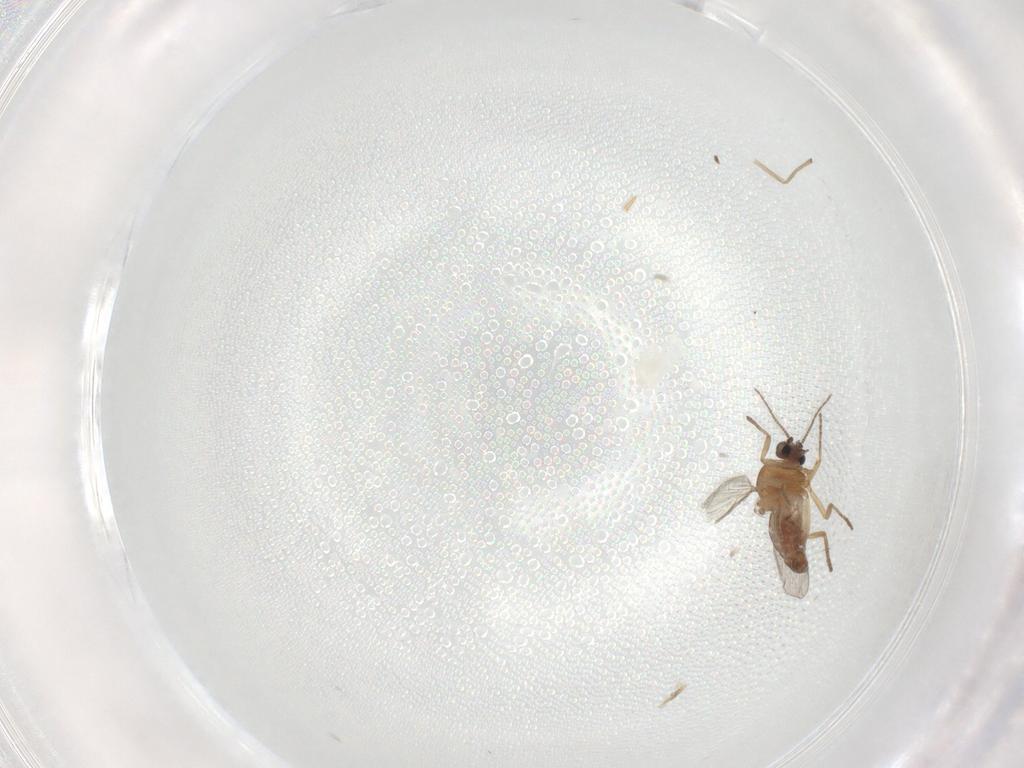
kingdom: Animalia
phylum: Arthropoda
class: Insecta
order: Diptera
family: Chironomidae
